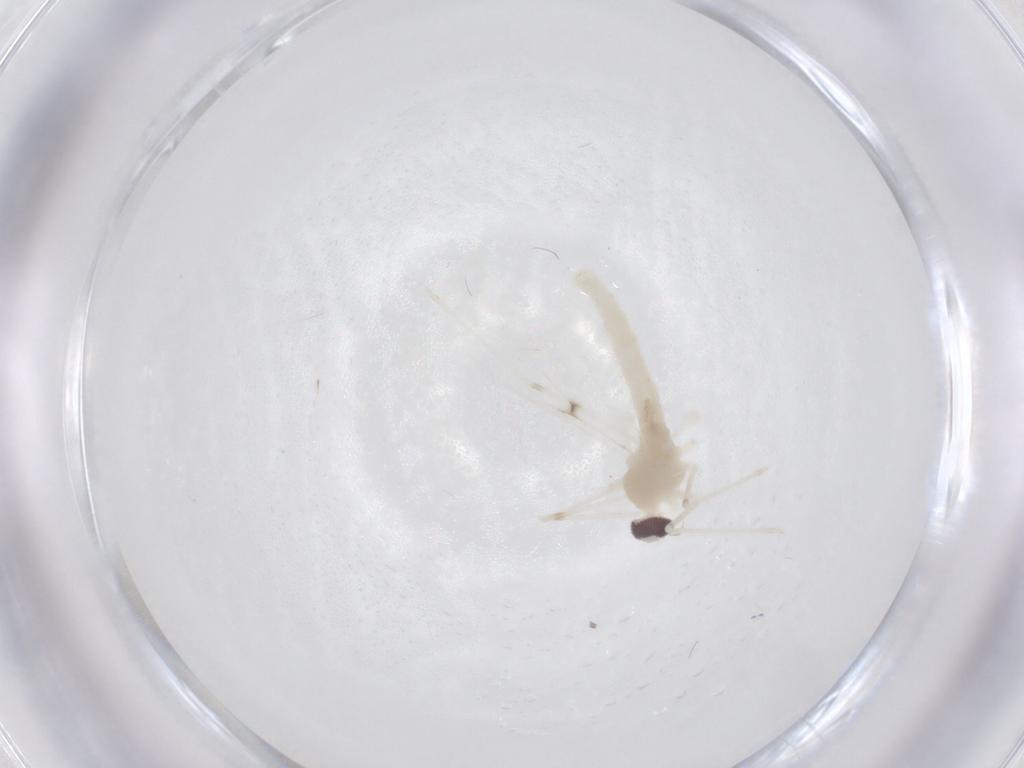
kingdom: Animalia
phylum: Arthropoda
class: Insecta
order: Diptera
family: Cecidomyiidae
